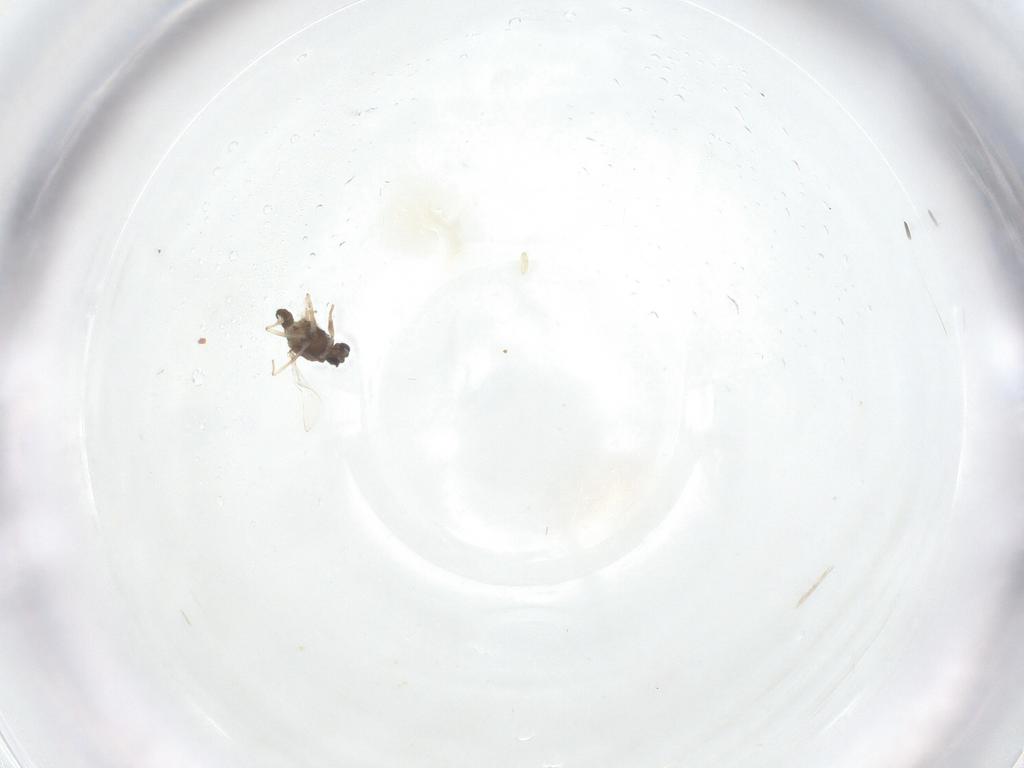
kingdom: Animalia
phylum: Arthropoda
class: Insecta
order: Diptera
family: Chironomidae
